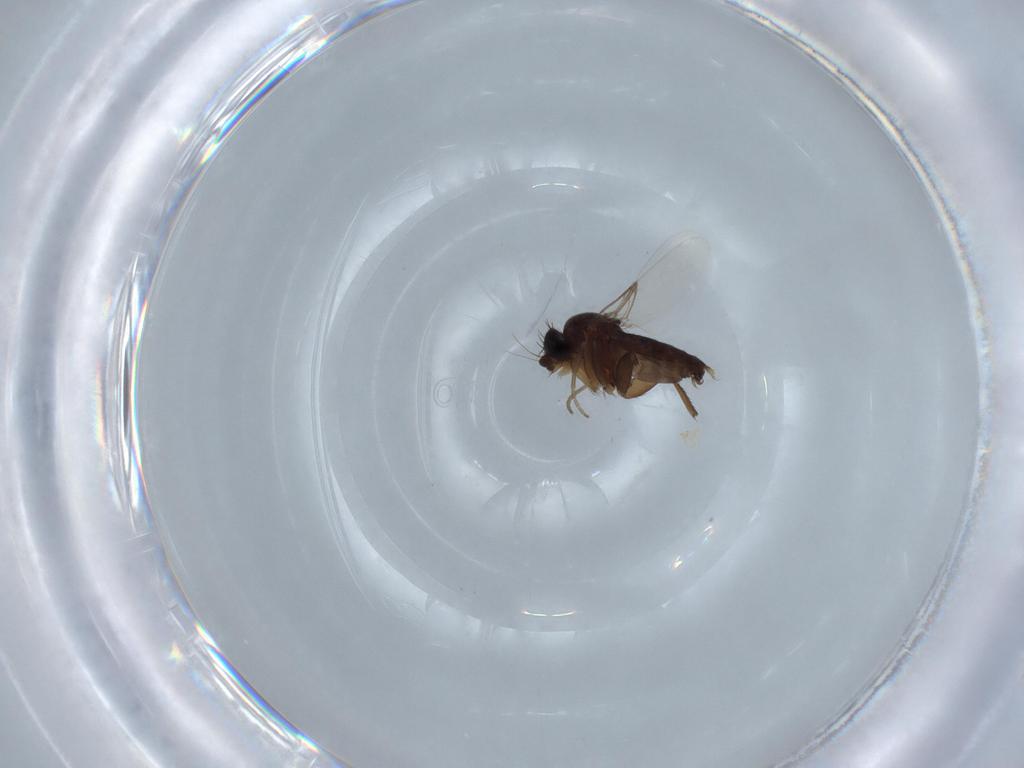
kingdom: Animalia
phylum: Arthropoda
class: Insecta
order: Diptera
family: Phoridae
